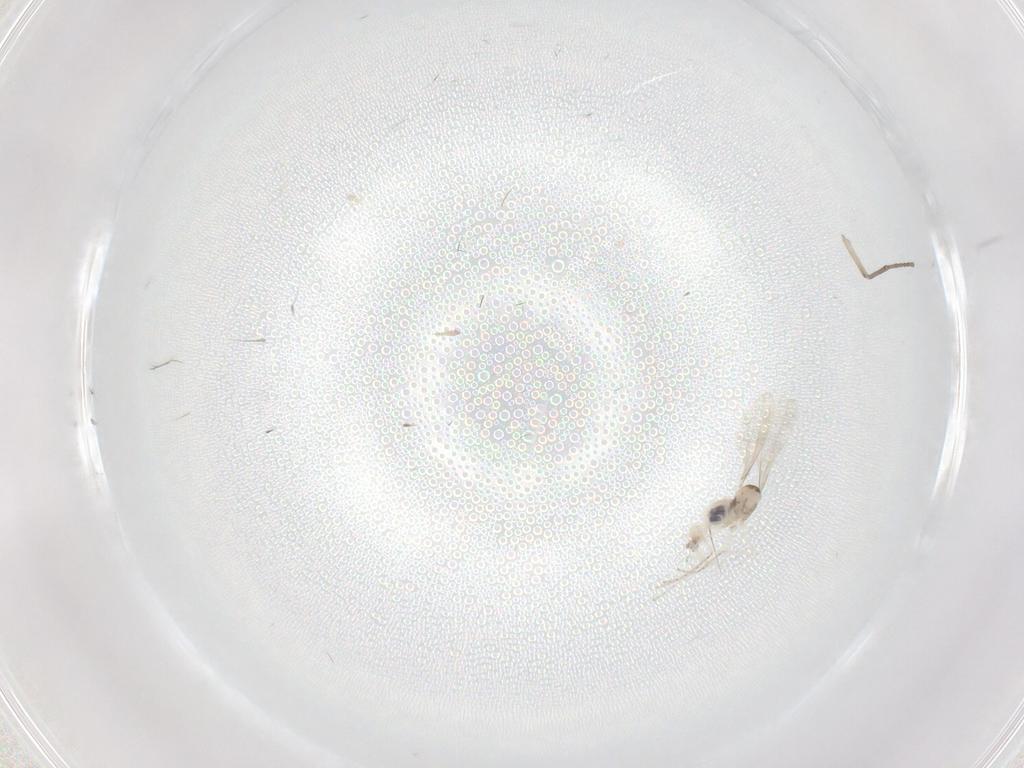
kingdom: Animalia
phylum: Arthropoda
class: Insecta
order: Diptera
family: Cecidomyiidae
